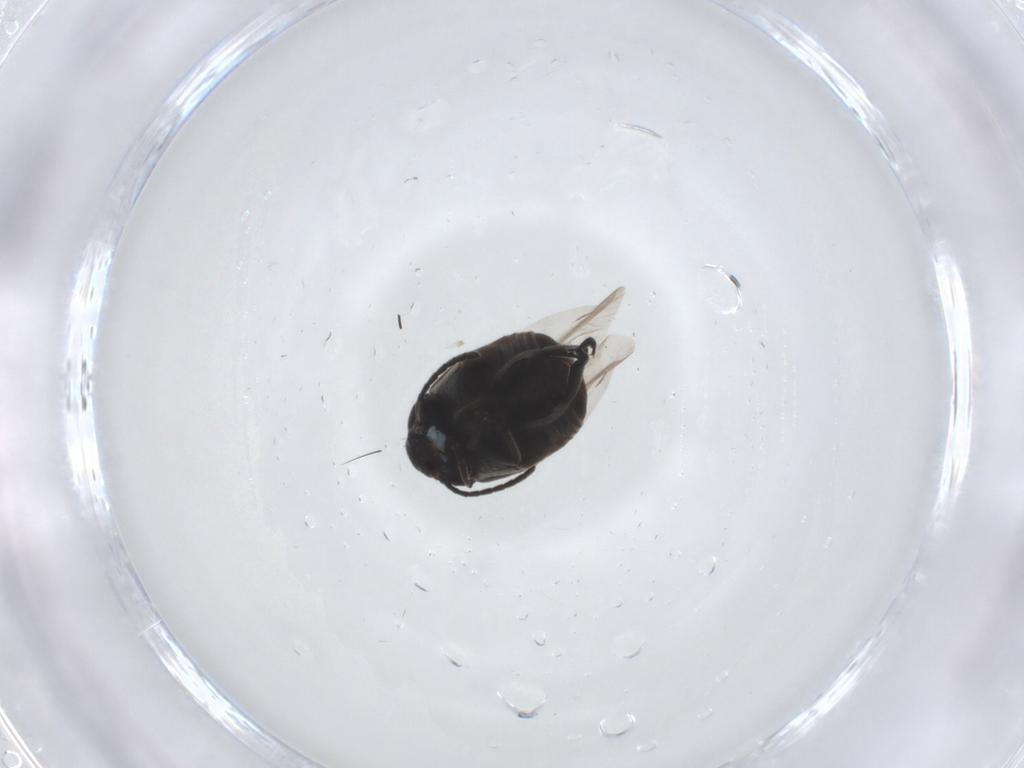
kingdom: Animalia
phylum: Arthropoda
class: Insecta
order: Coleoptera
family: Chrysomelidae
